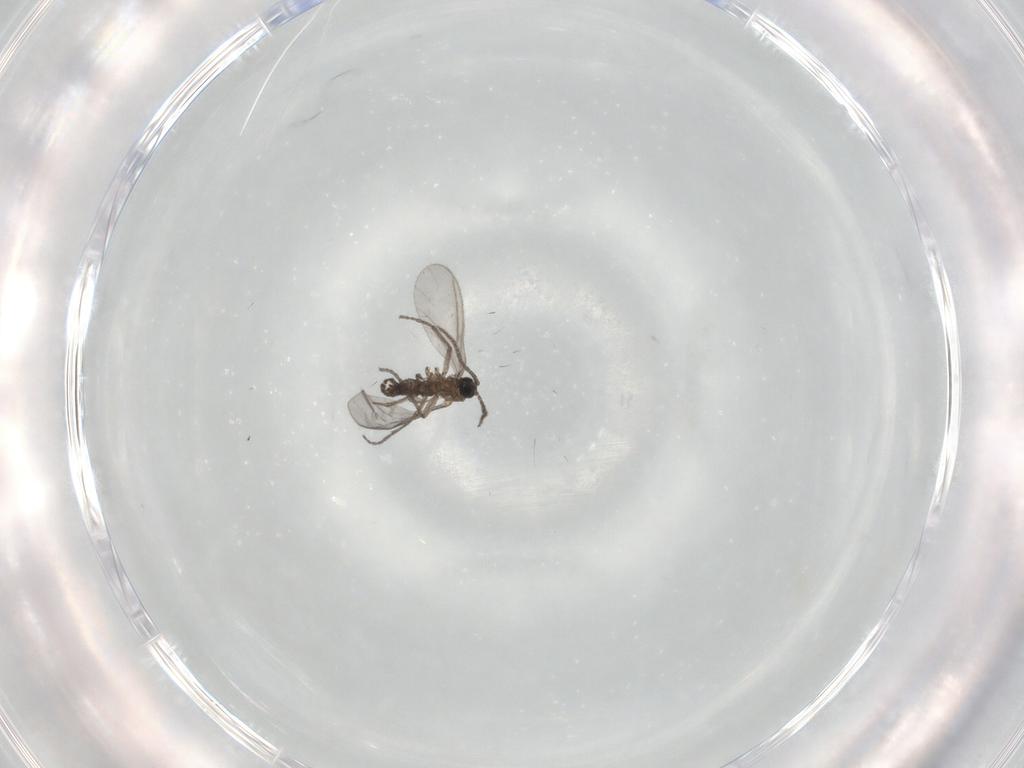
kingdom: Animalia
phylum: Arthropoda
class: Insecta
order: Diptera
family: Sciaridae
